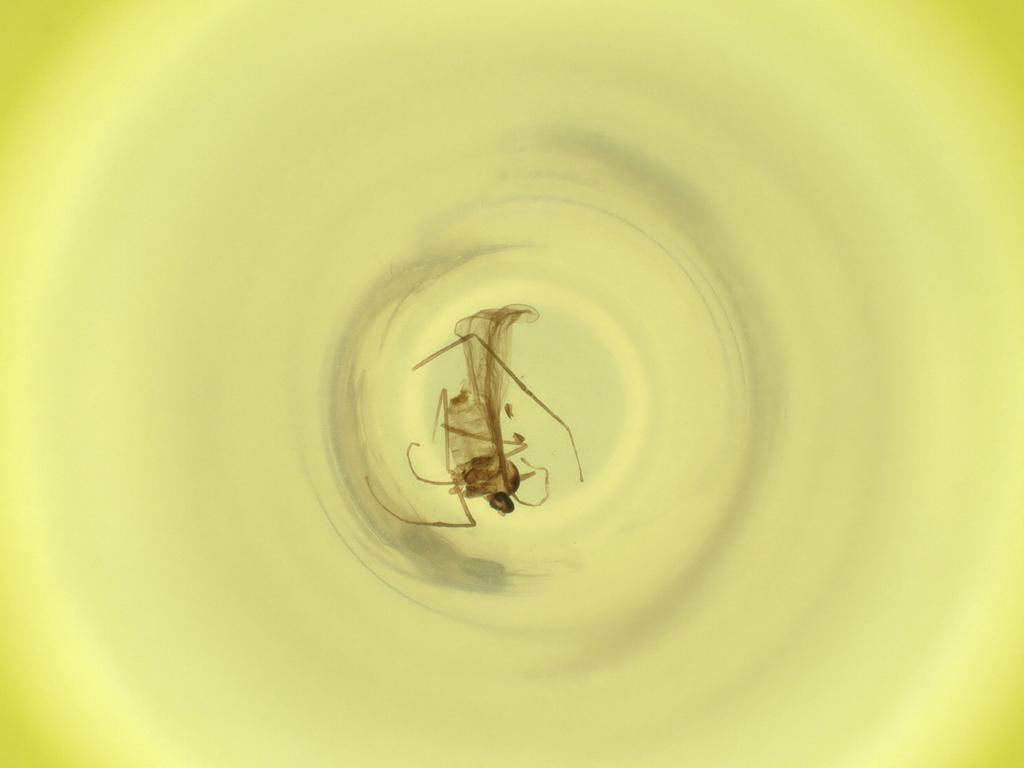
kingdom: Animalia
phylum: Arthropoda
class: Insecta
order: Diptera
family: Cecidomyiidae
